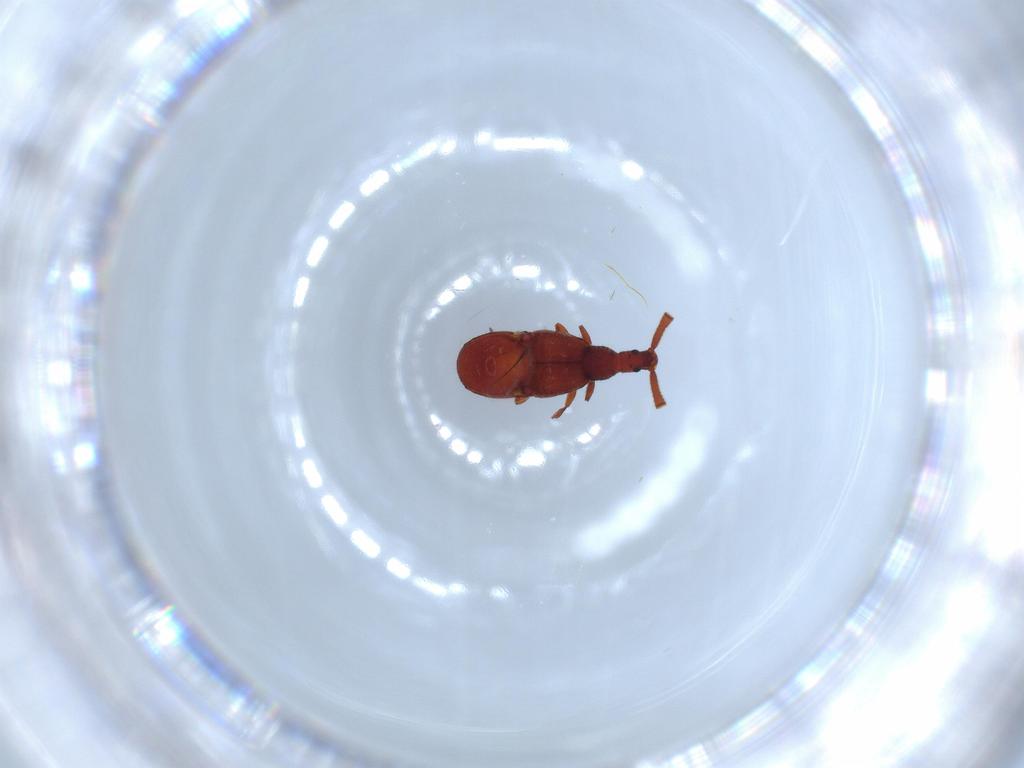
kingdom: Animalia
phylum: Arthropoda
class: Insecta
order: Coleoptera
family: Staphylinidae
